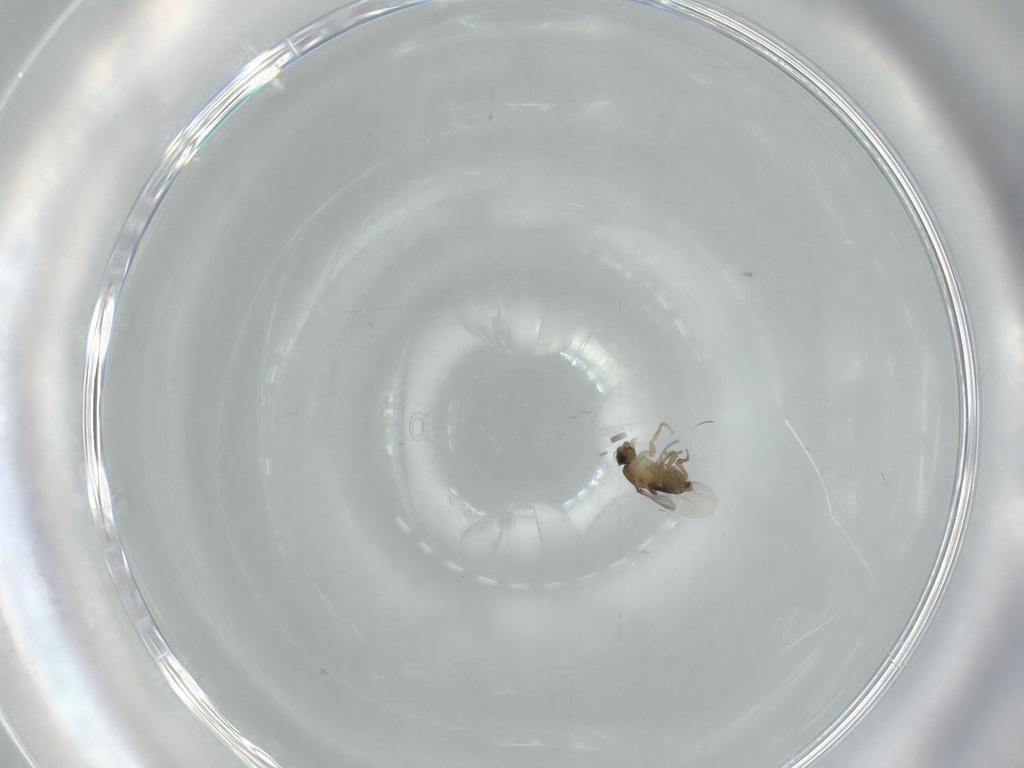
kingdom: Animalia
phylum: Arthropoda
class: Insecta
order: Diptera
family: Phoridae
